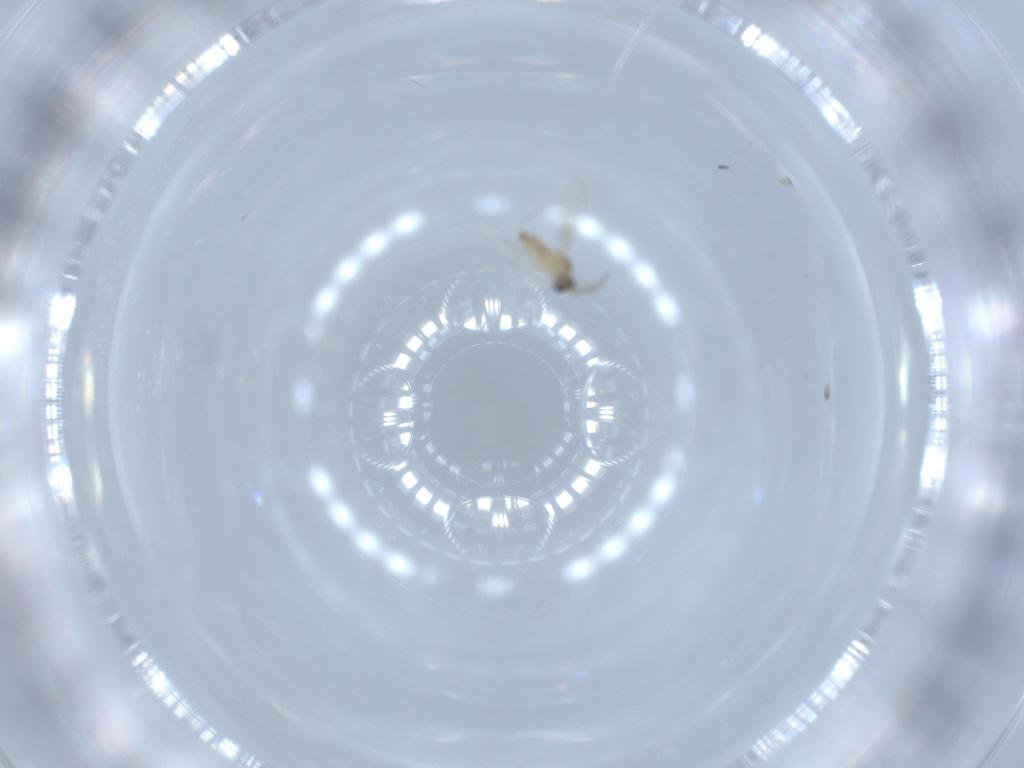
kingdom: Animalia
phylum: Arthropoda
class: Insecta
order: Diptera
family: Cecidomyiidae
